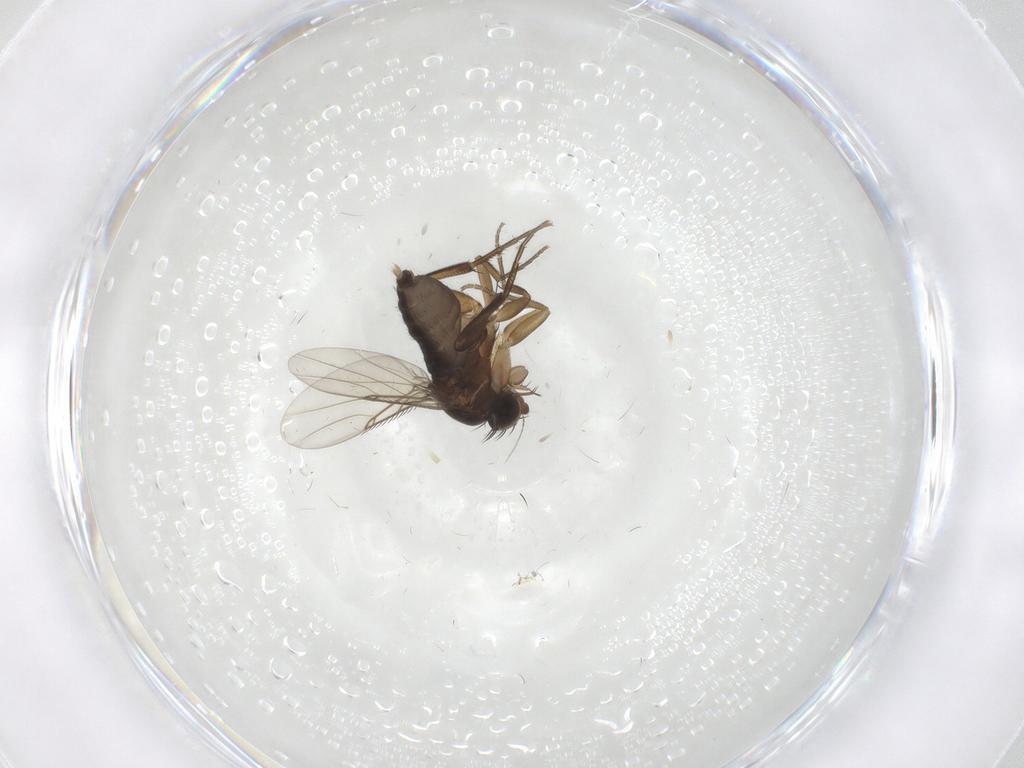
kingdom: Animalia
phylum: Arthropoda
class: Insecta
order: Diptera
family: Phoridae
